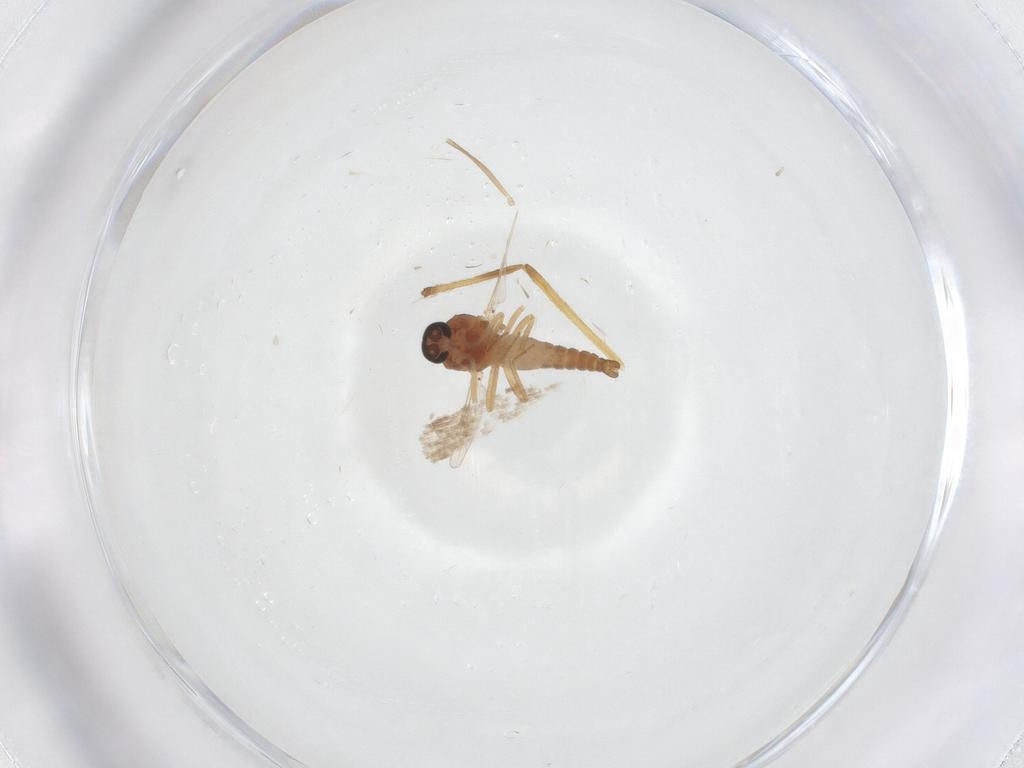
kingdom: Animalia
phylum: Arthropoda
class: Insecta
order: Diptera
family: Ceratopogonidae
